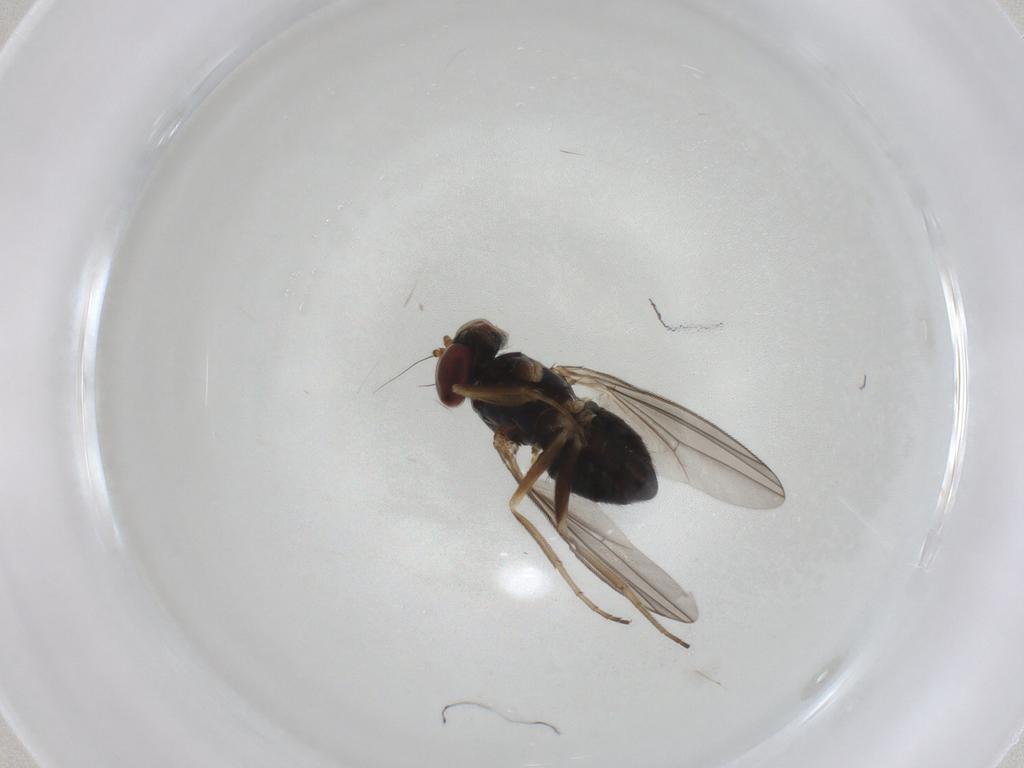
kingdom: Animalia
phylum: Arthropoda
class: Insecta
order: Diptera
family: Dolichopodidae
